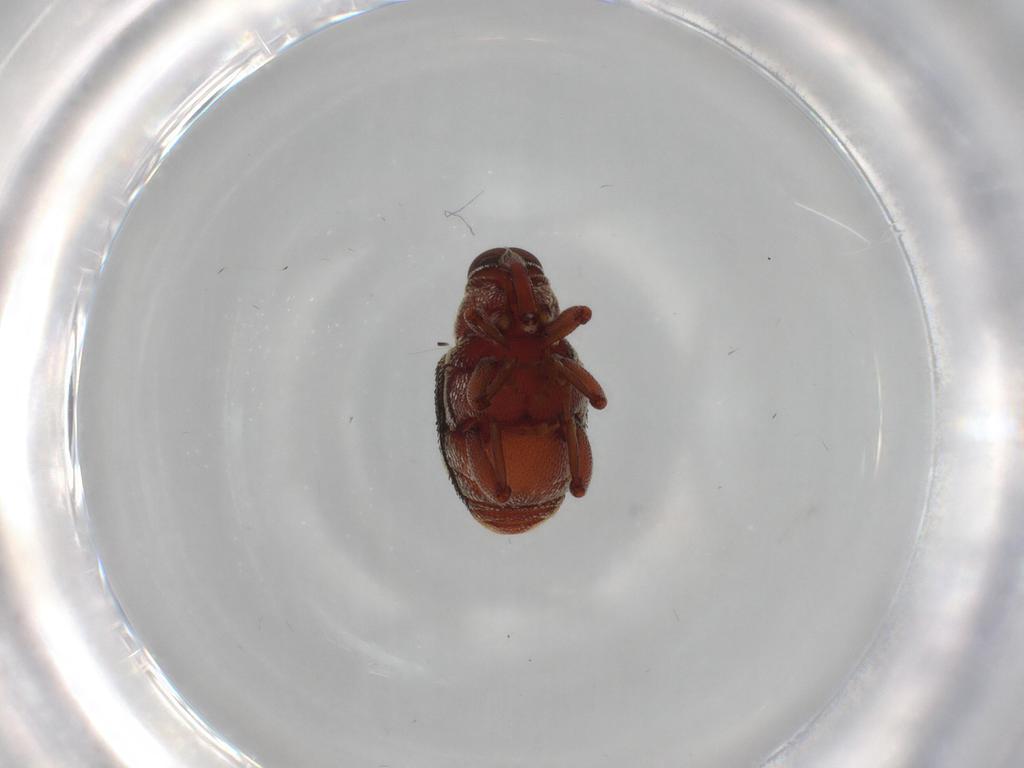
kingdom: Animalia
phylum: Arthropoda
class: Insecta
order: Coleoptera
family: Curculionidae
